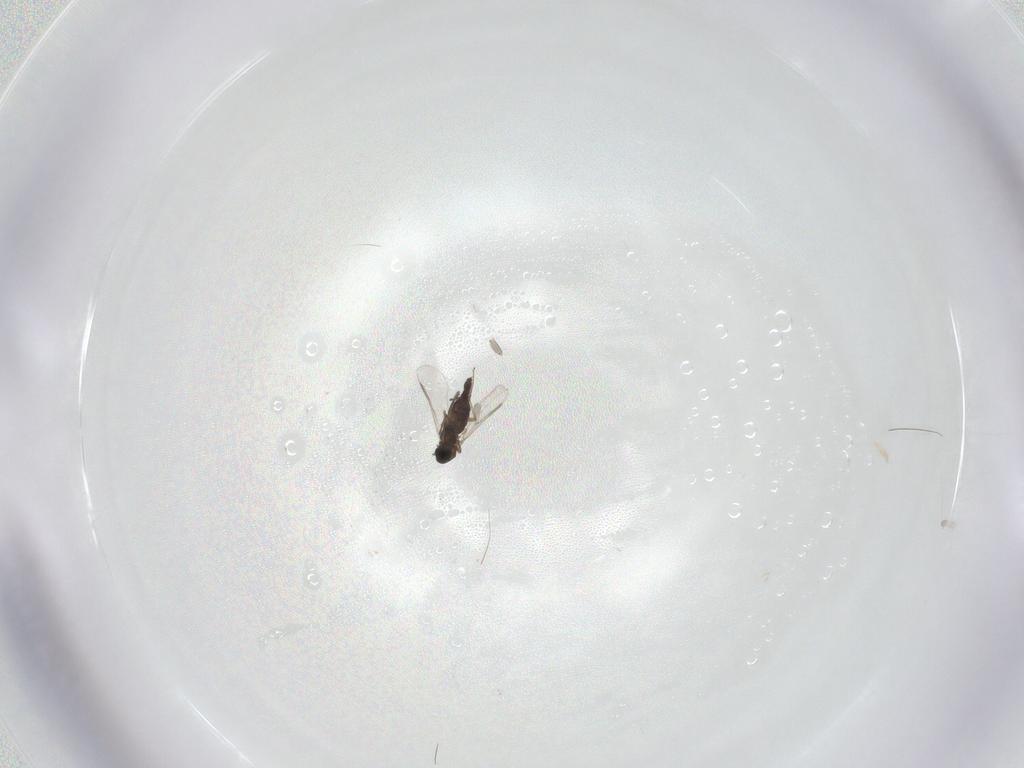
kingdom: Animalia
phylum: Arthropoda
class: Insecta
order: Diptera
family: Chironomidae
